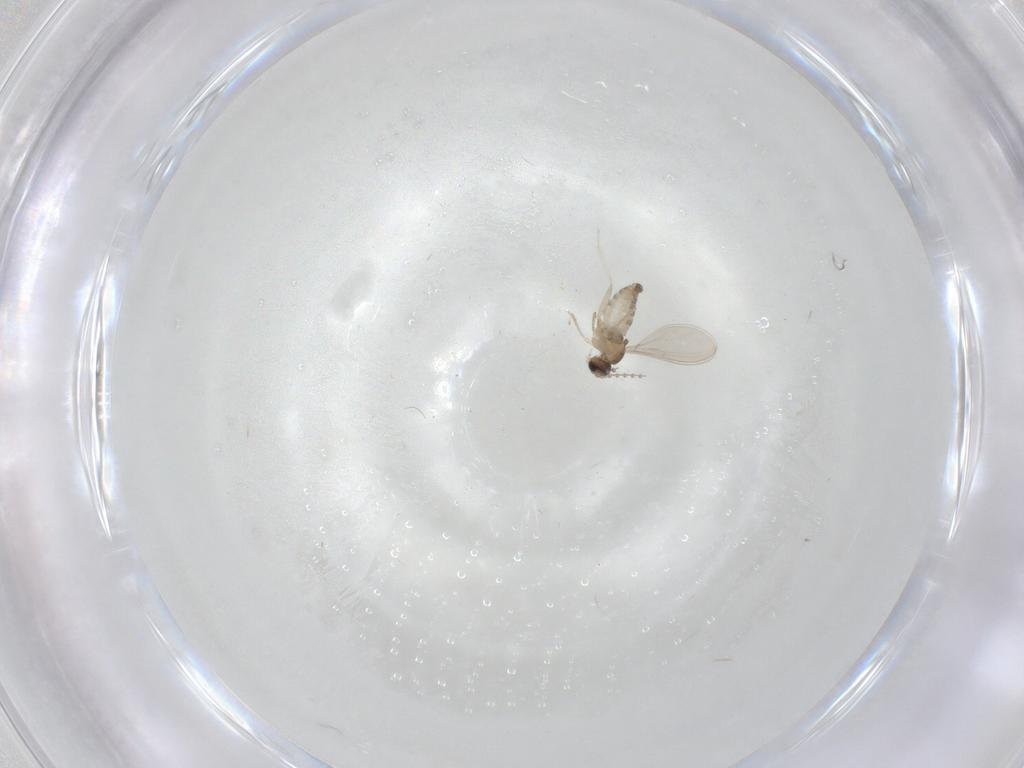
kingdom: Animalia
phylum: Arthropoda
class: Insecta
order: Diptera
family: Cecidomyiidae
